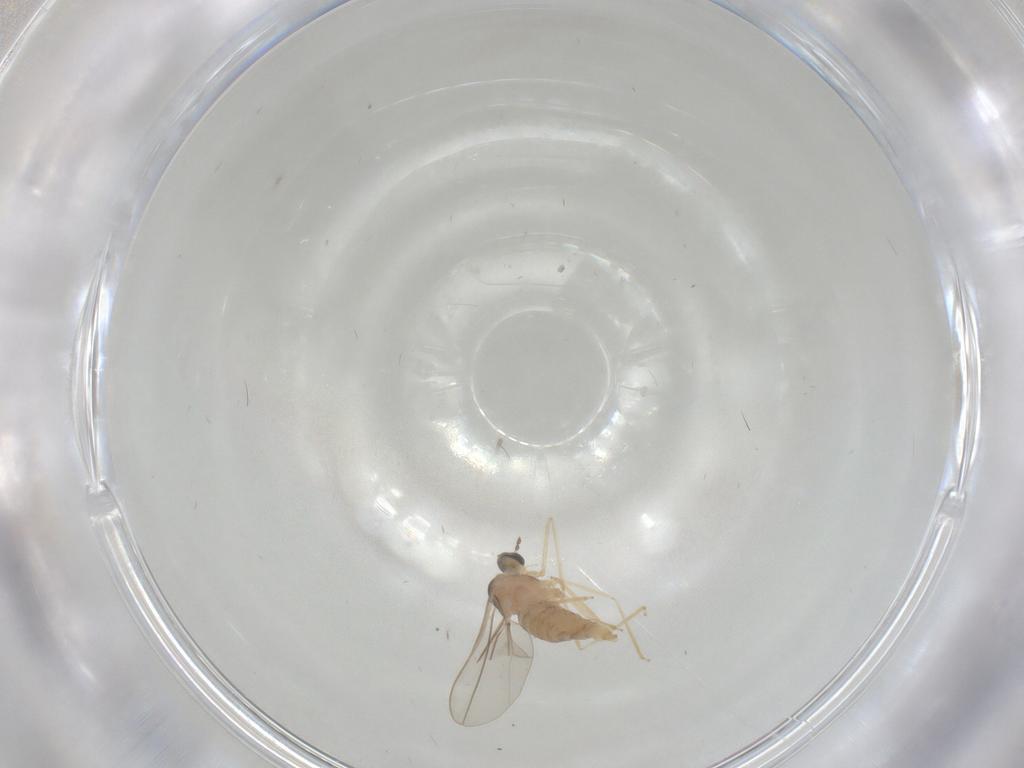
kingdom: Animalia
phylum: Arthropoda
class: Insecta
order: Diptera
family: Cecidomyiidae
